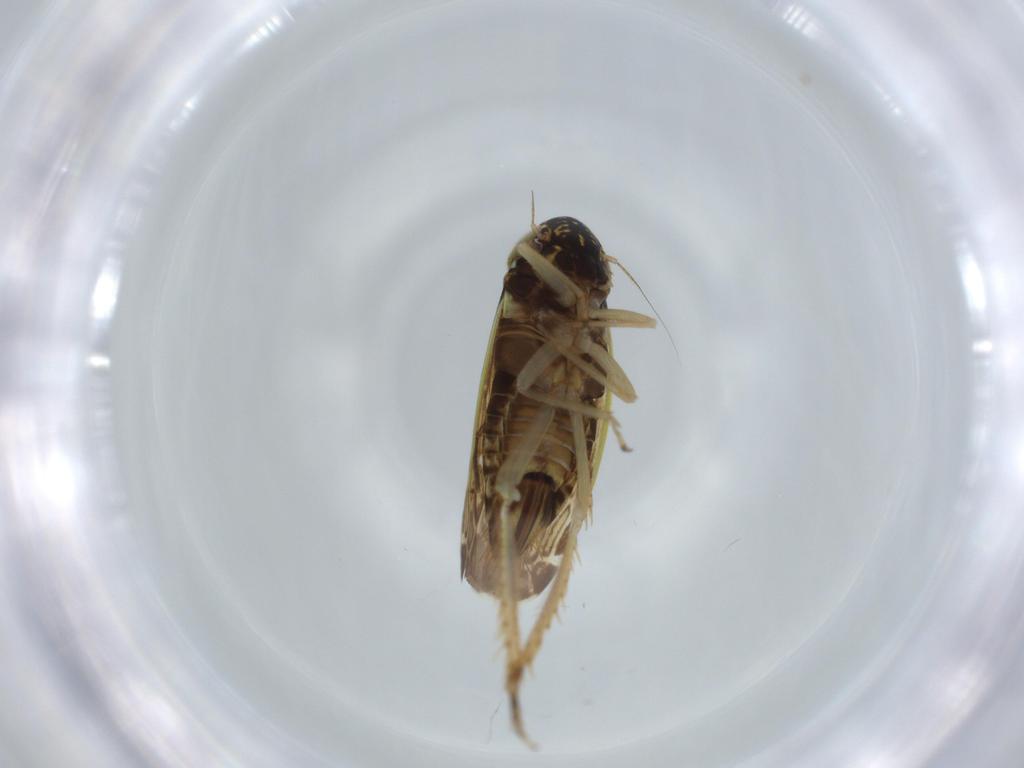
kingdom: Animalia
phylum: Arthropoda
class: Insecta
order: Hemiptera
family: Cicadellidae
